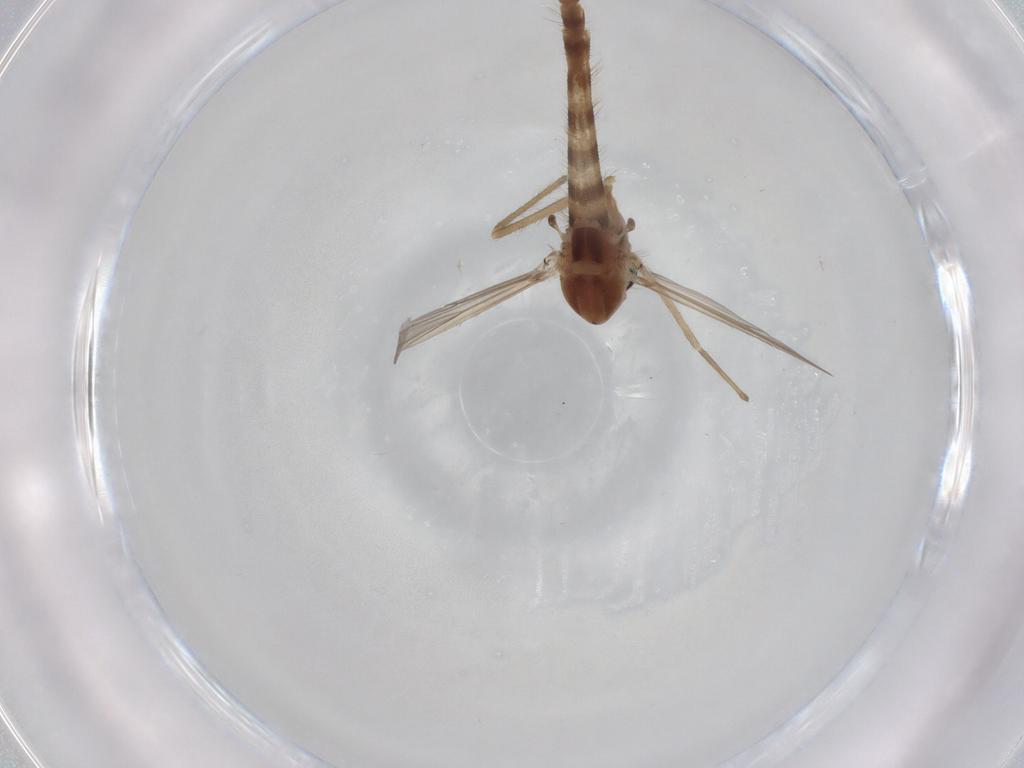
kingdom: Animalia
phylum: Arthropoda
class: Insecta
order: Diptera
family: Chironomidae
